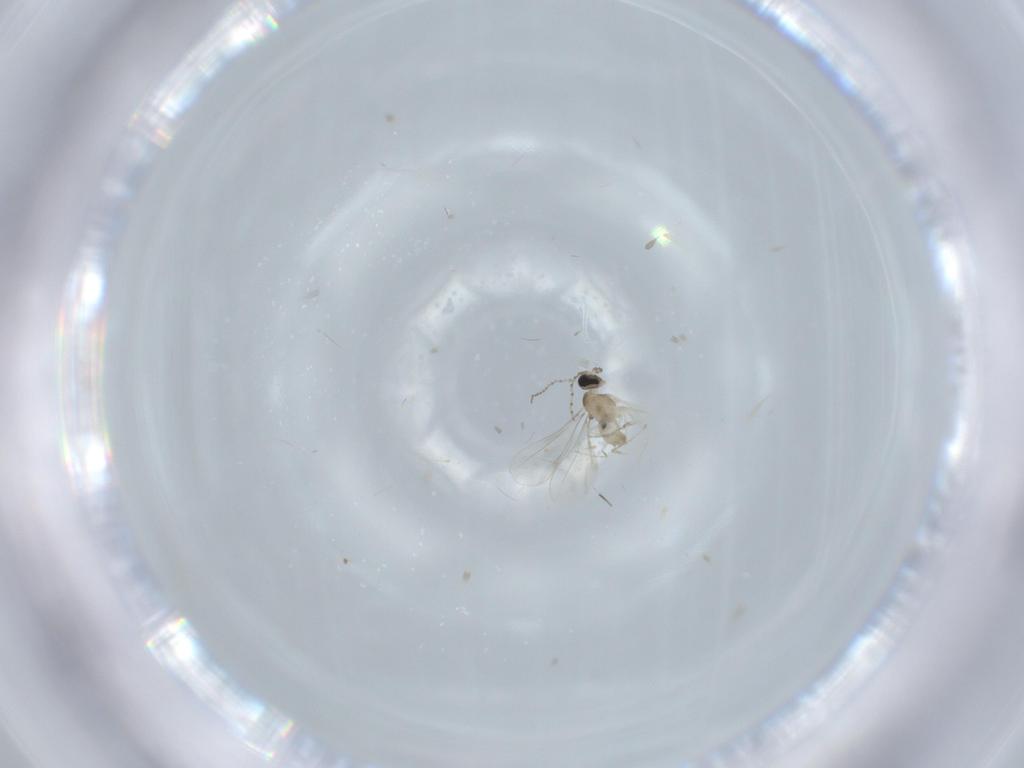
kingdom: Animalia
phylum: Arthropoda
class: Insecta
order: Diptera
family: Cecidomyiidae
